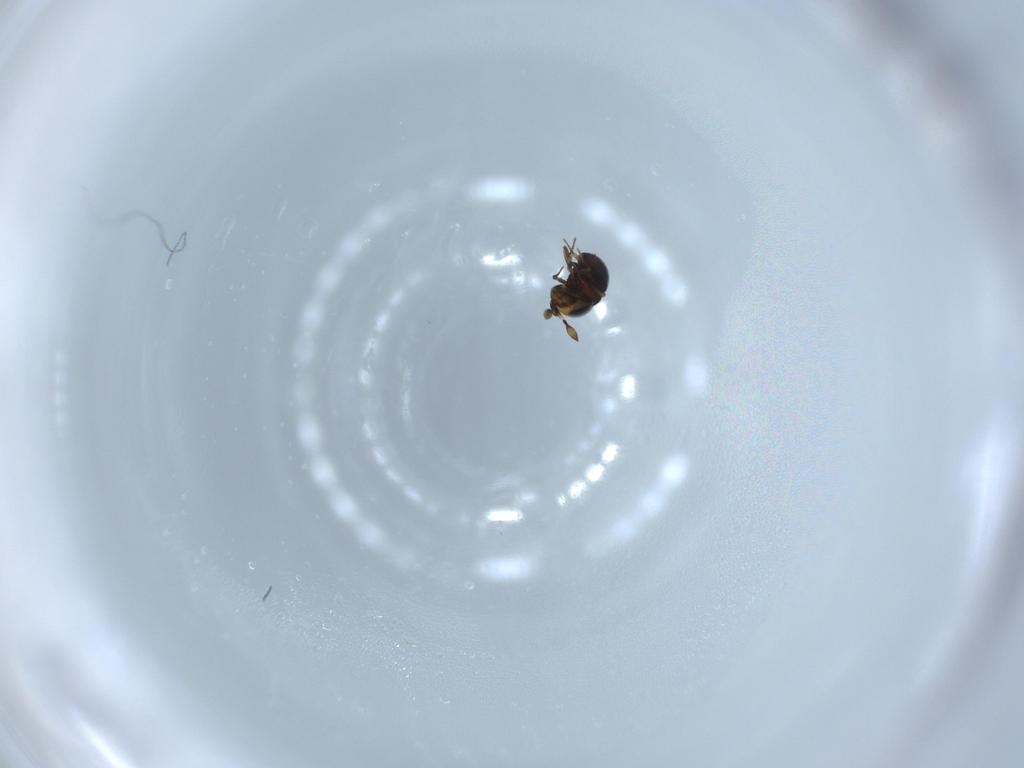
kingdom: Animalia
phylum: Arthropoda
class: Insecta
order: Hymenoptera
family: Scelionidae
